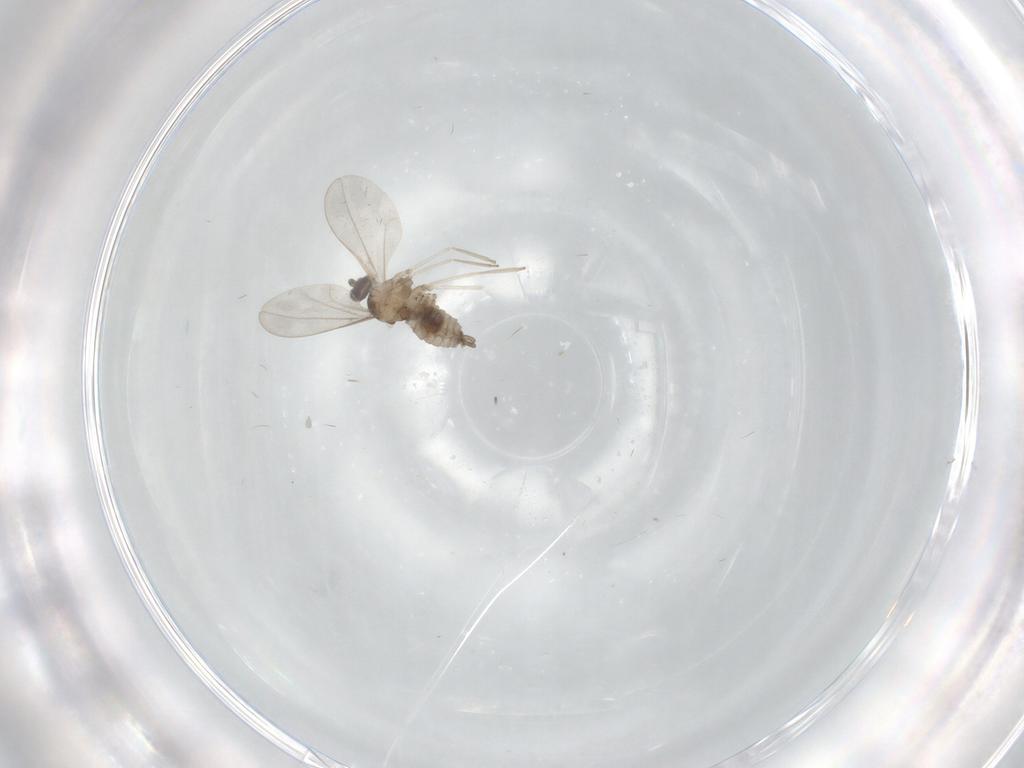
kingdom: Animalia
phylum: Arthropoda
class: Insecta
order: Diptera
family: Cecidomyiidae
